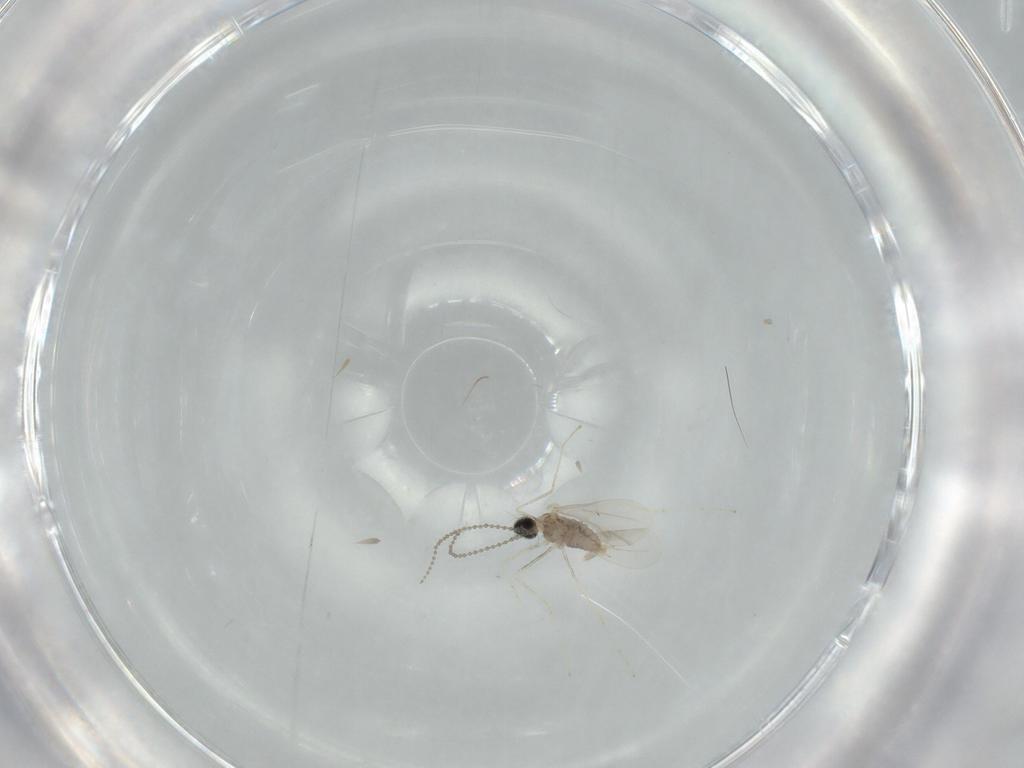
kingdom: Animalia
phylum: Arthropoda
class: Insecta
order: Diptera
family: Cecidomyiidae
